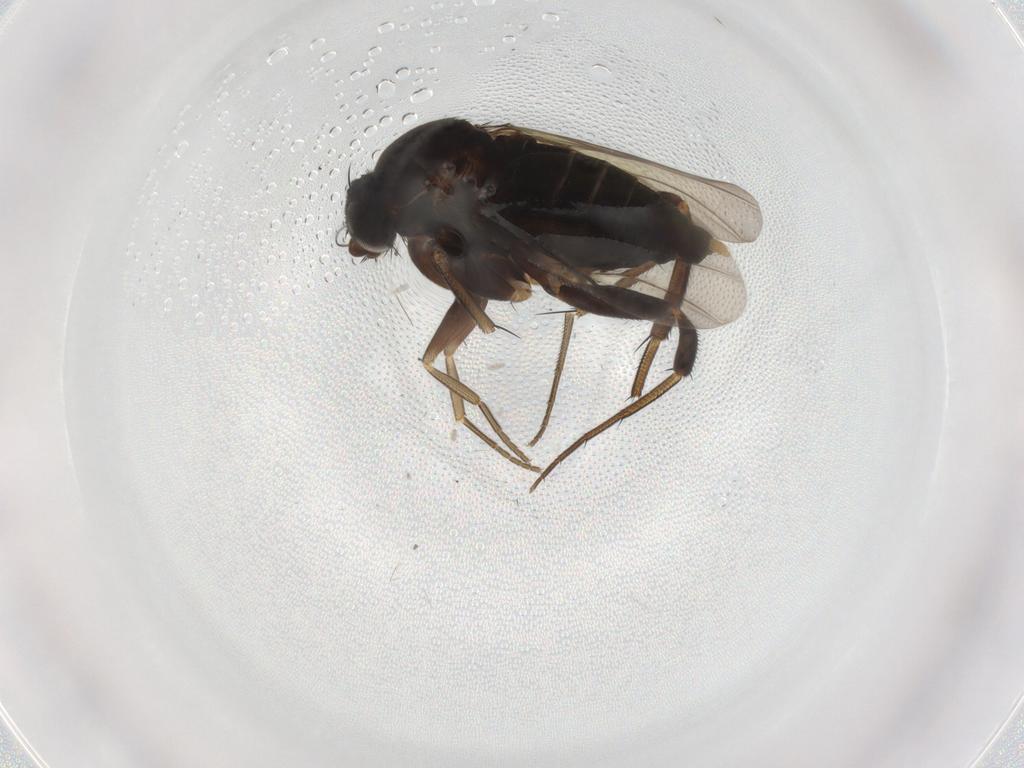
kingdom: Animalia
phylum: Arthropoda
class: Insecta
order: Diptera
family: Phoridae
